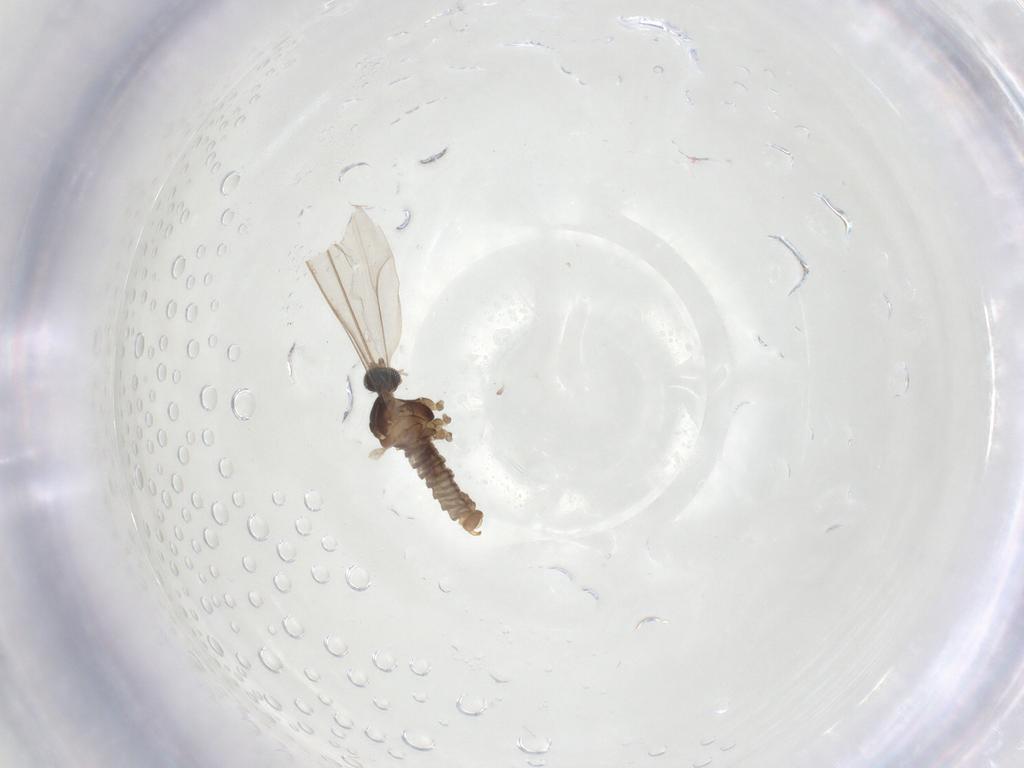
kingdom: Animalia
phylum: Arthropoda
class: Insecta
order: Diptera
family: Cecidomyiidae
